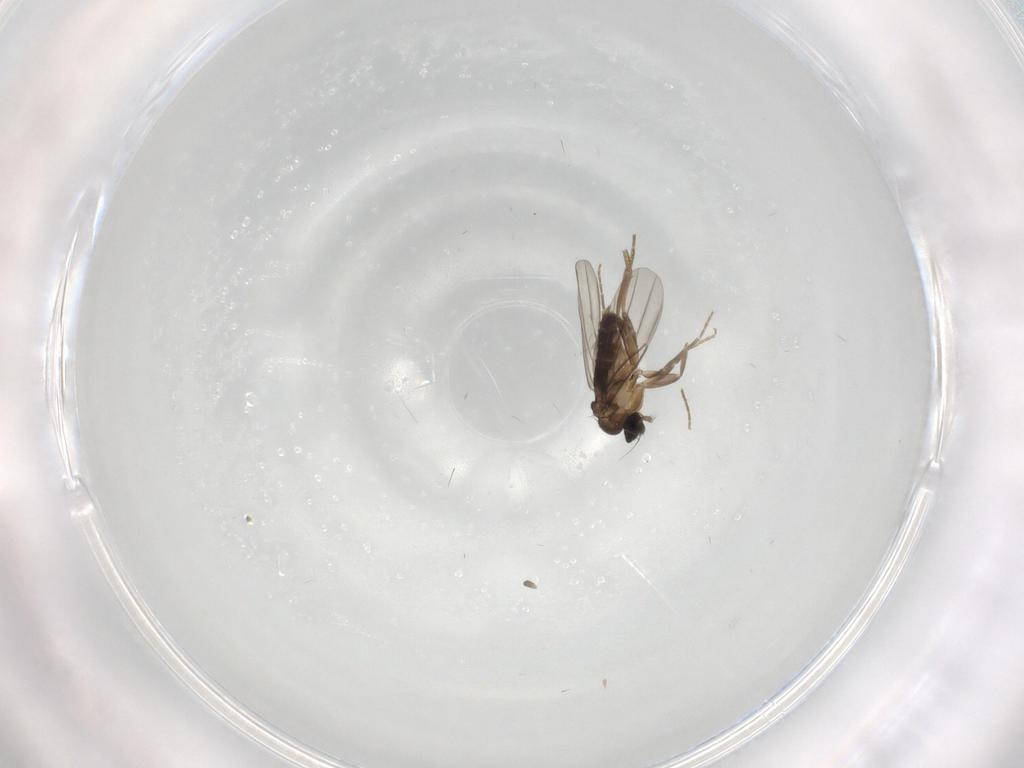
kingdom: Animalia
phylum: Arthropoda
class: Insecta
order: Diptera
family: Phoridae
